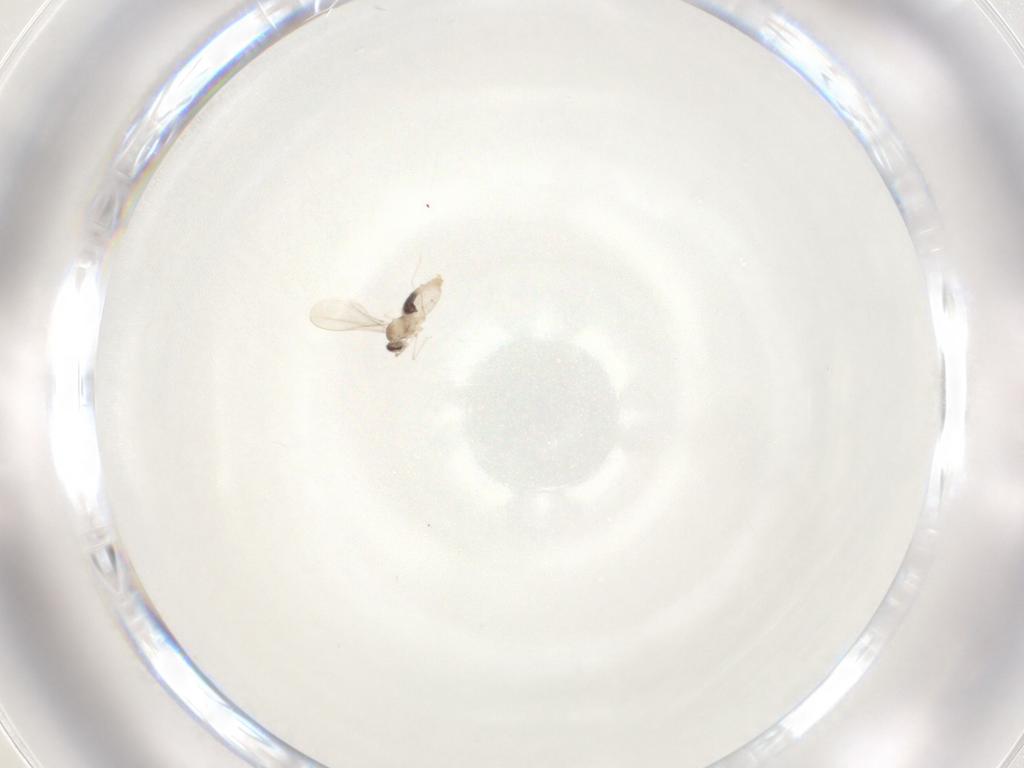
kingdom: Animalia
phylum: Arthropoda
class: Insecta
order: Diptera
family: Cecidomyiidae
